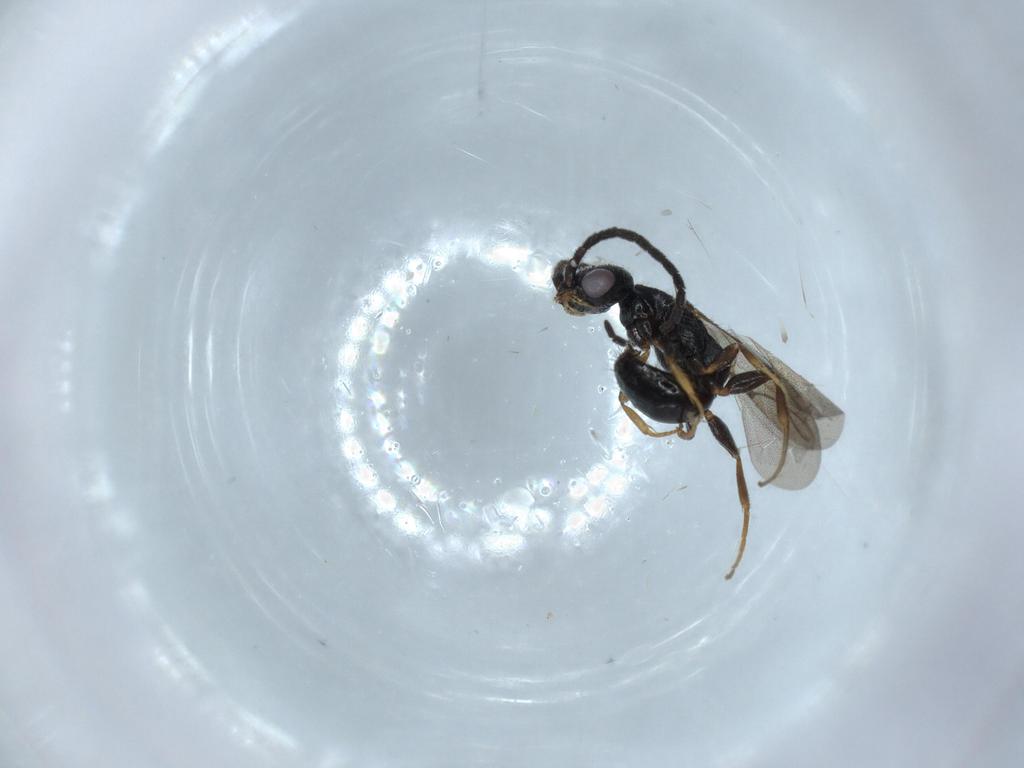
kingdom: Animalia
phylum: Arthropoda
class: Insecta
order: Hymenoptera
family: Bethylidae
